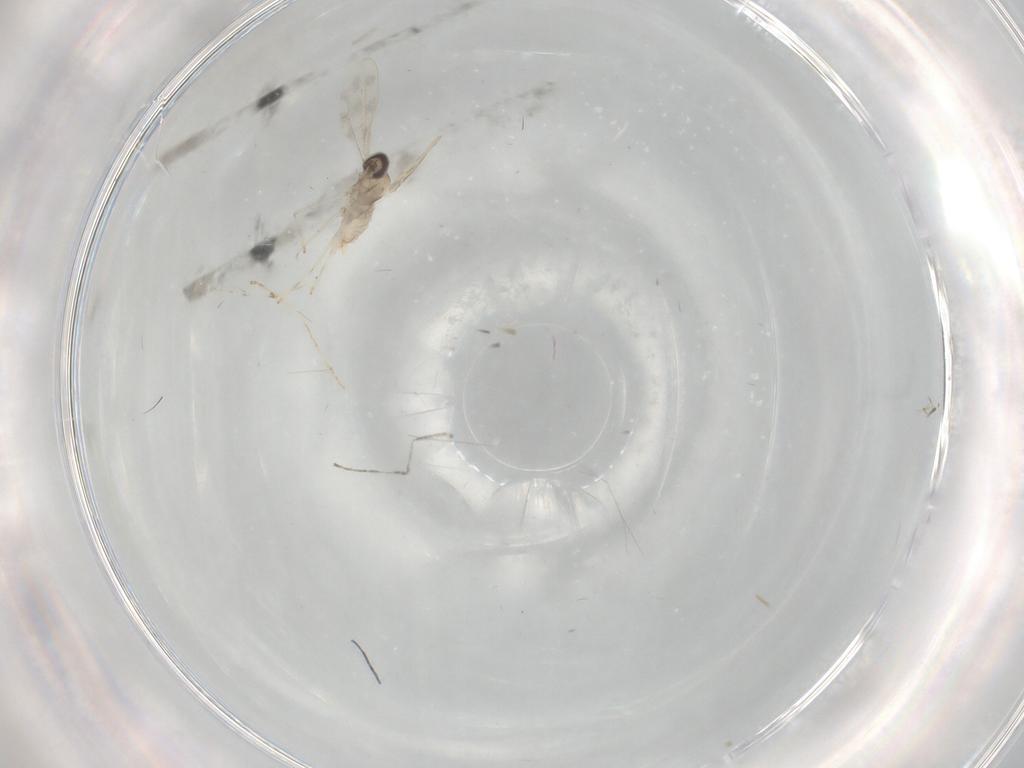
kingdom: Animalia
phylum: Arthropoda
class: Insecta
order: Diptera
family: Cecidomyiidae
